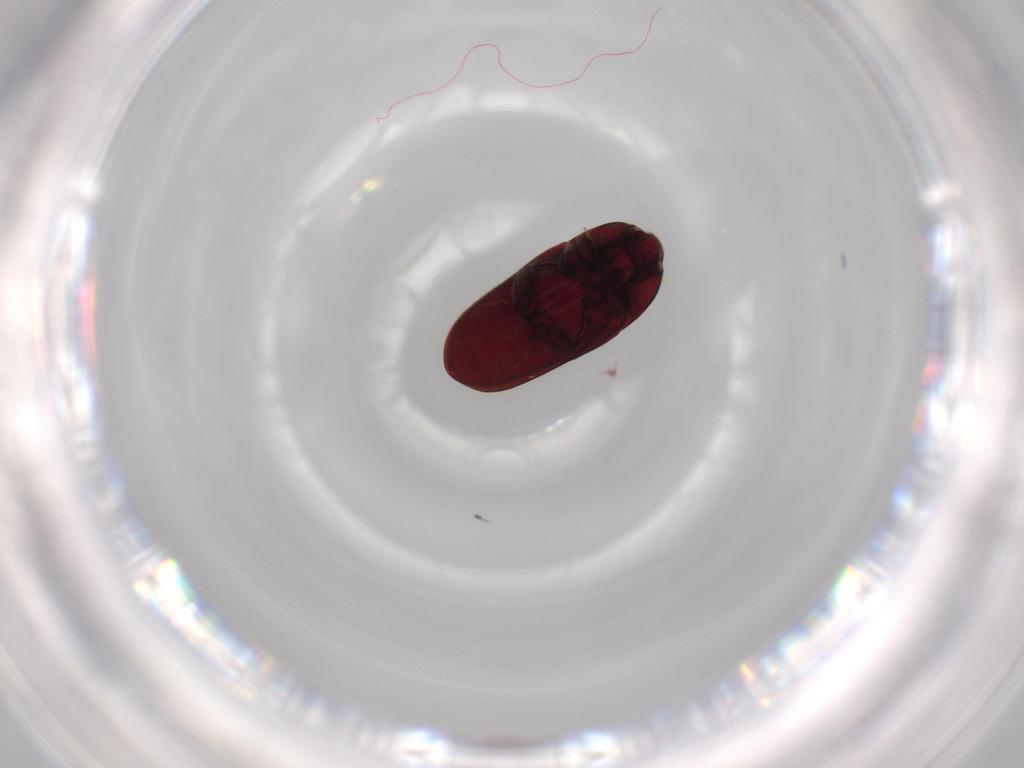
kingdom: Animalia
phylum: Arthropoda
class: Insecta
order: Coleoptera
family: Throscidae
